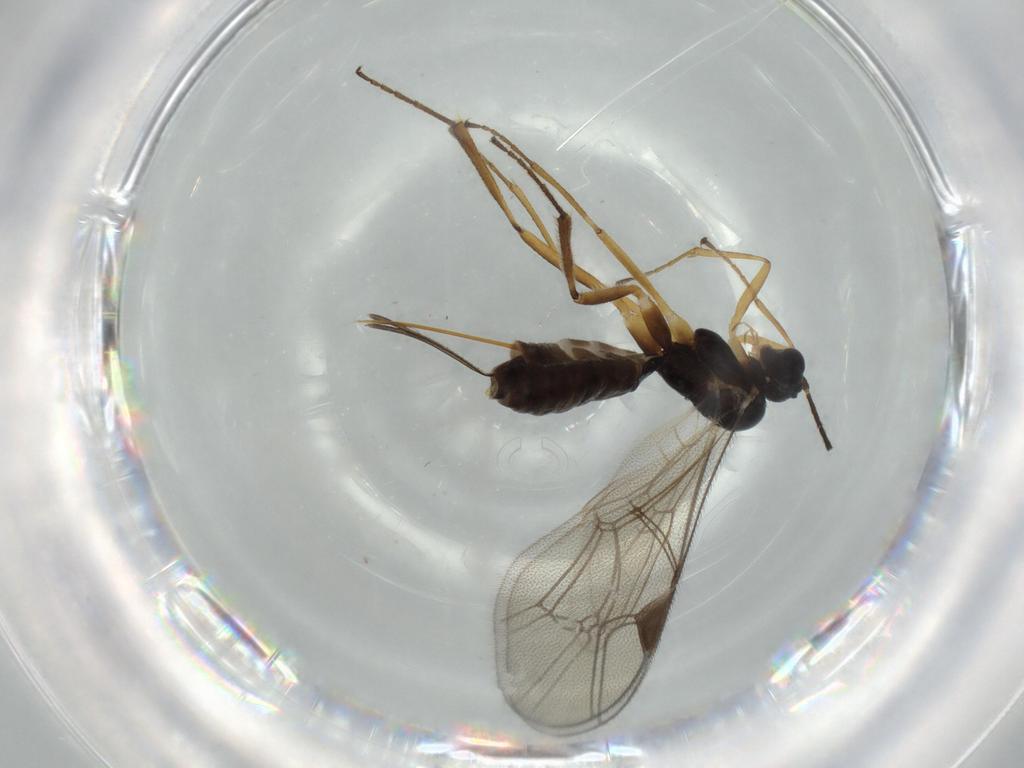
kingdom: Animalia
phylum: Arthropoda
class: Insecta
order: Hymenoptera
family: Ichneumonidae
